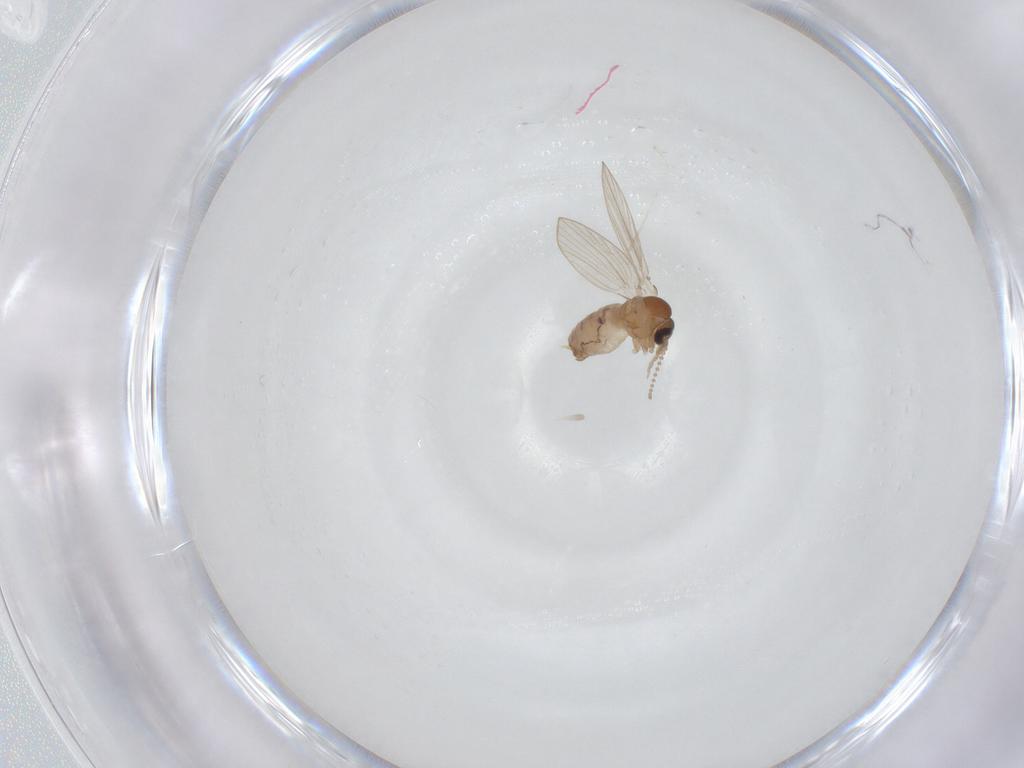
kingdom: Animalia
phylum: Arthropoda
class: Insecta
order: Diptera
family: Psychodidae
